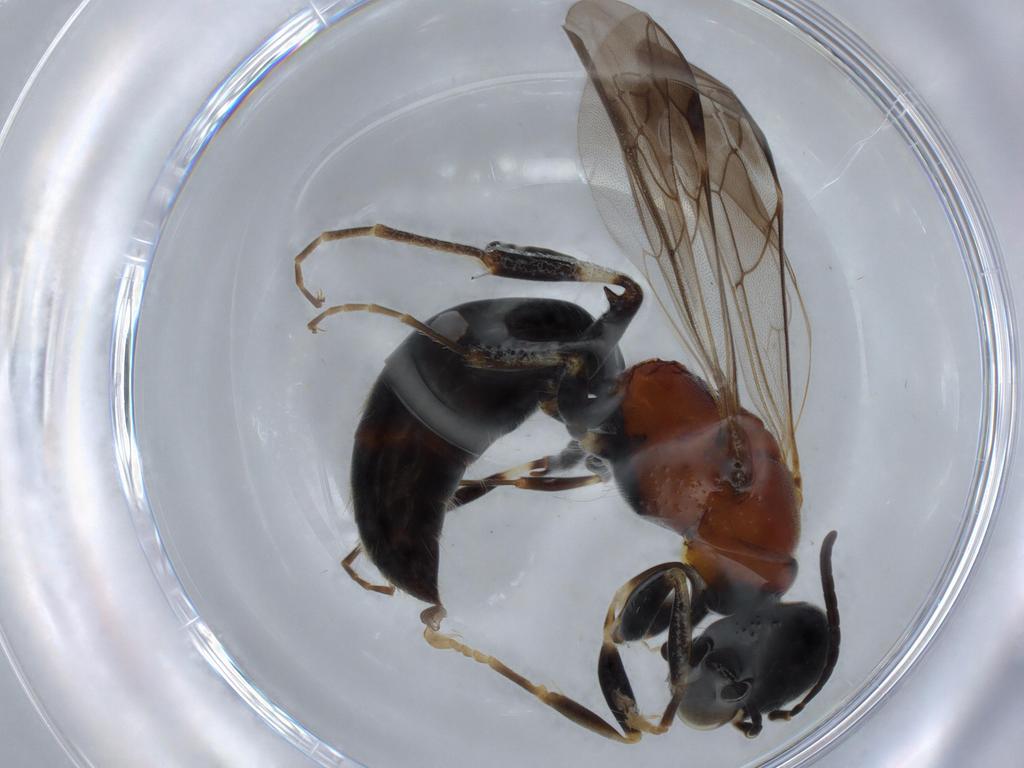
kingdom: Animalia
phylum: Arthropoda
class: Insecta
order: Hymenoptera
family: Bembicidae
